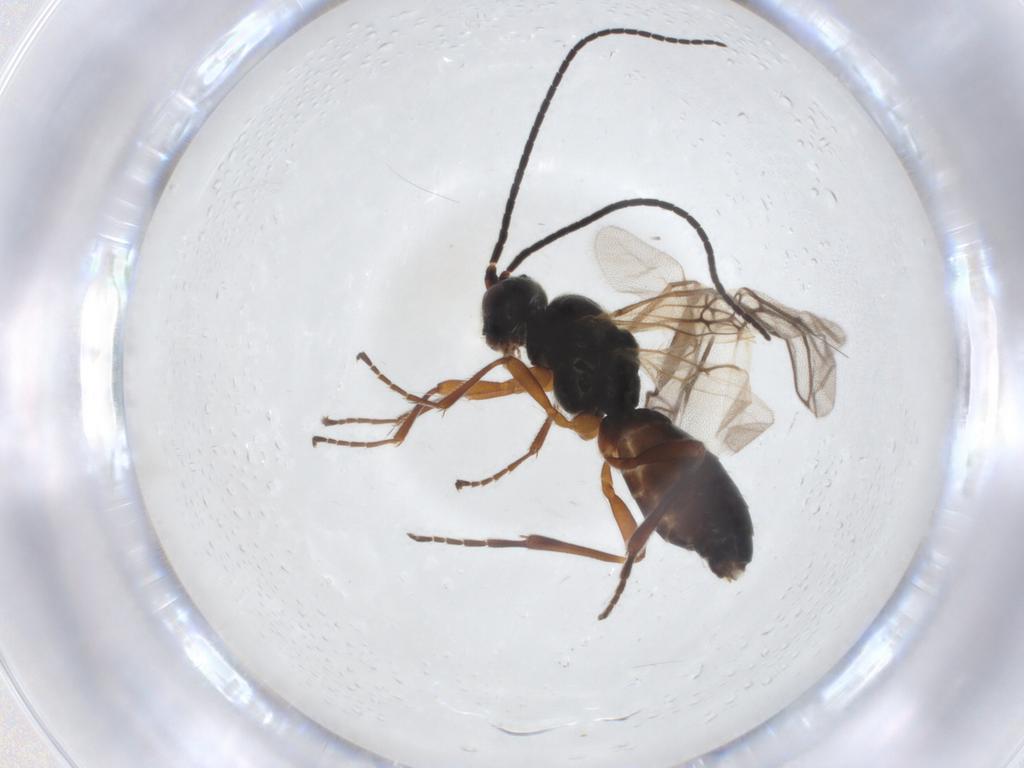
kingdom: Animalia
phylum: Arthropoda
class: Insecta
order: Hymenoptera
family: Braconidae
